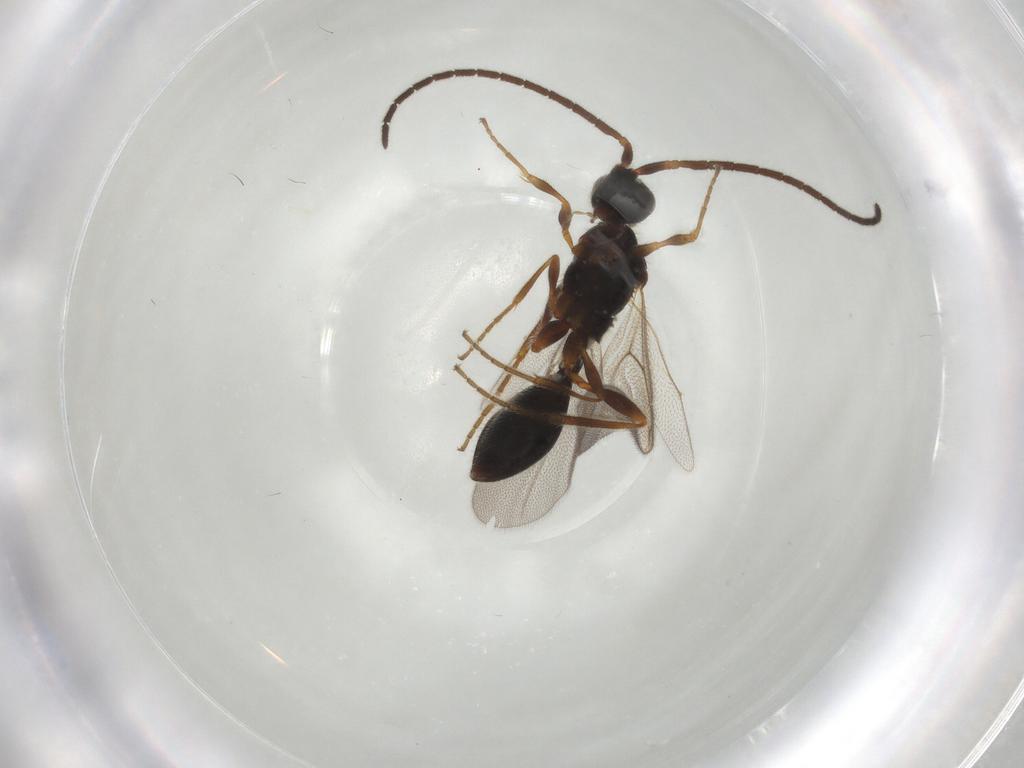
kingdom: Animalia
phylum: Arthropoda
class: Insecta
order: Hymenoptera
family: Diapriidae
